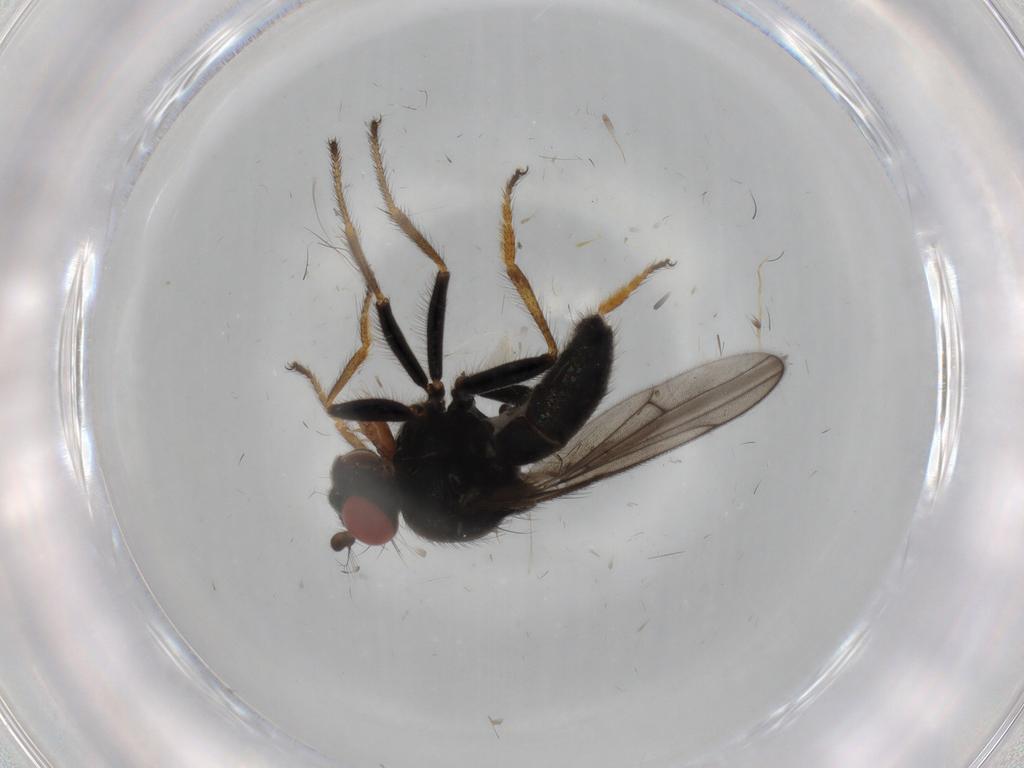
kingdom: Animalia
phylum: Arthropoda
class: Insecta
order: Diptera
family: Ephydridae
